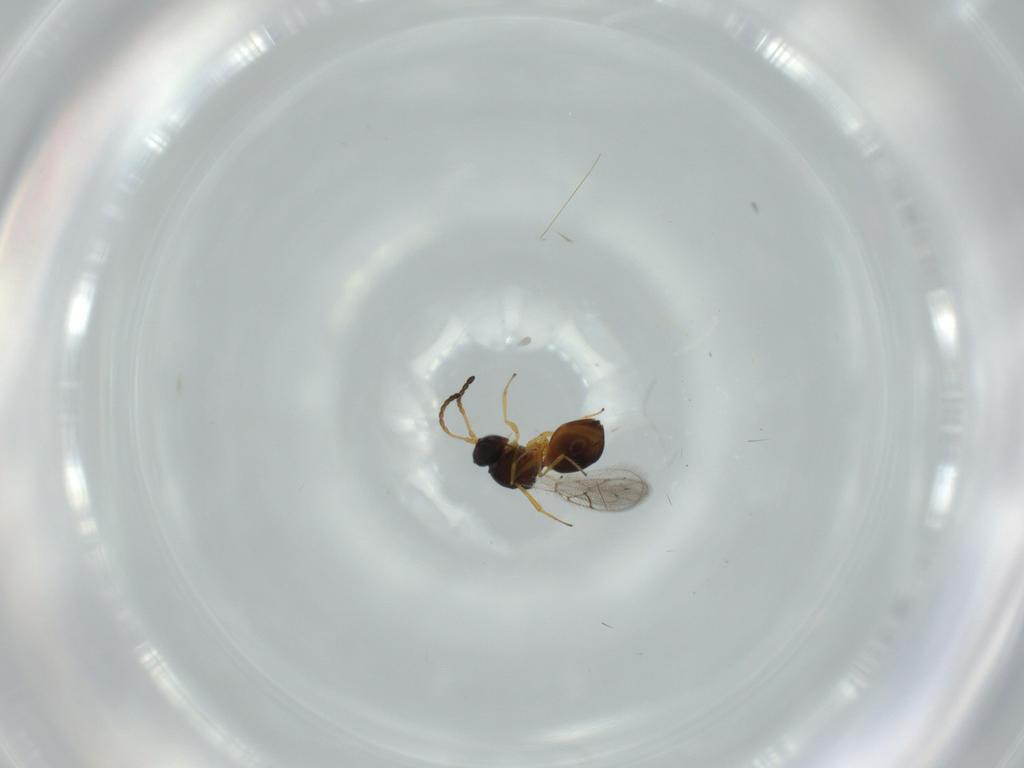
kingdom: Animalia
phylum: Arthropoda
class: Insecta
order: Hymenoptera
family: Figitidae
